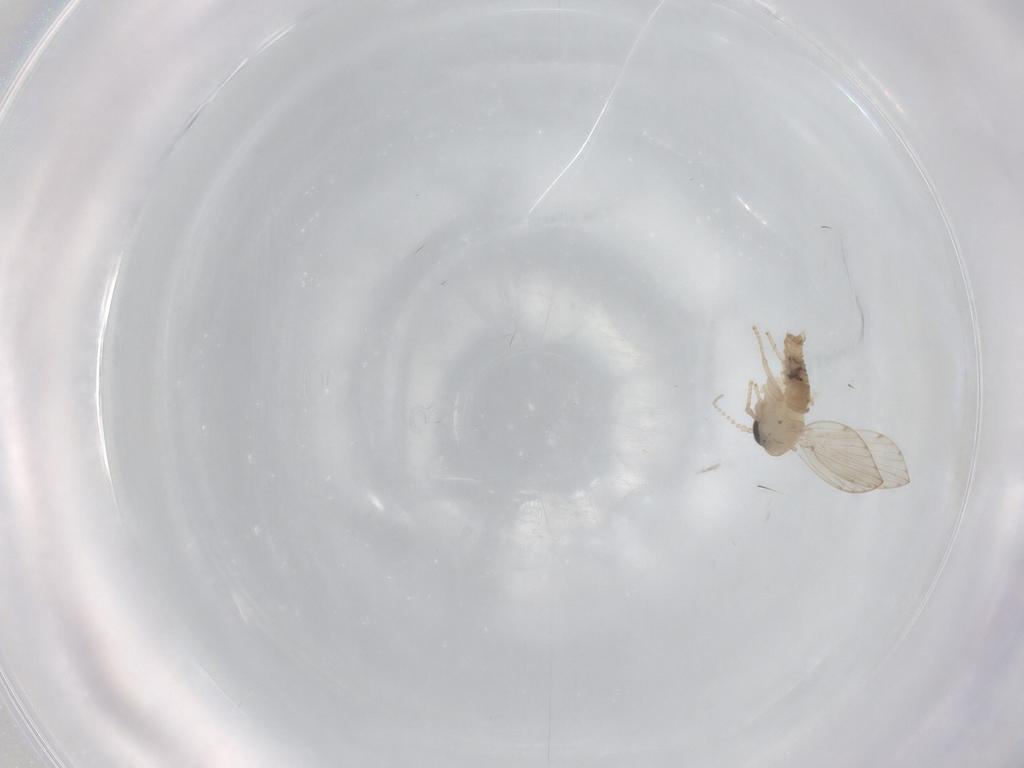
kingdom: Animalia
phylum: Arthropoda
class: Insecta
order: Diptera
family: Psychodidae
